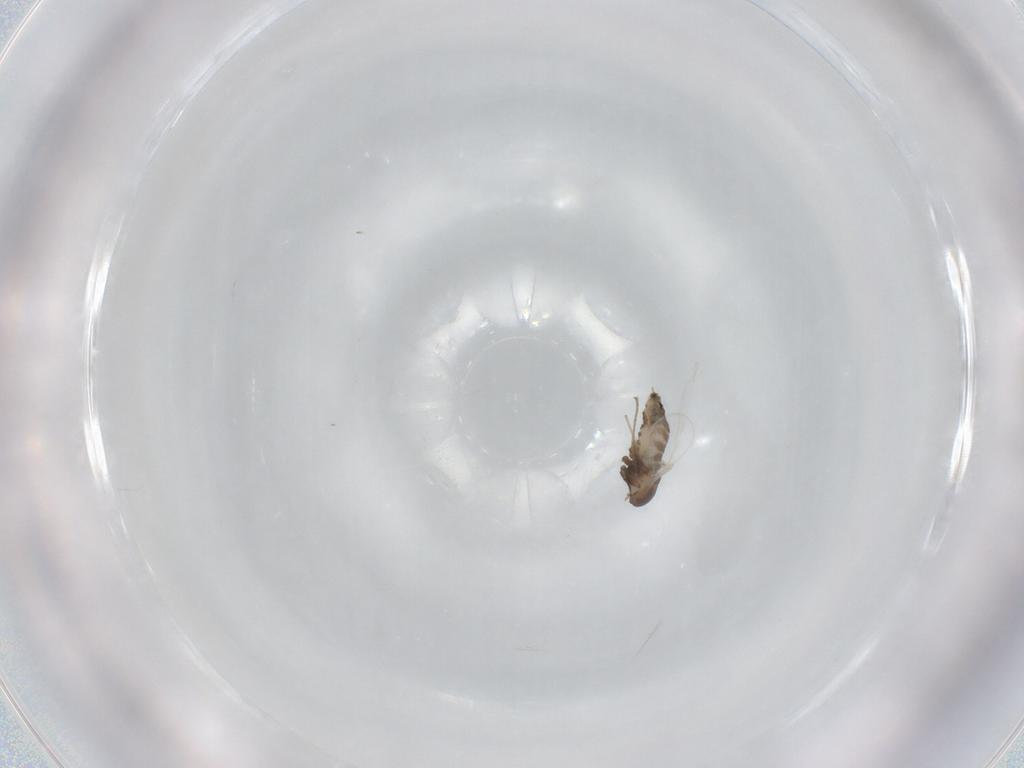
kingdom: Animalia
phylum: Arthropoda
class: Insecta
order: Diptera
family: Cecidomyiidae
